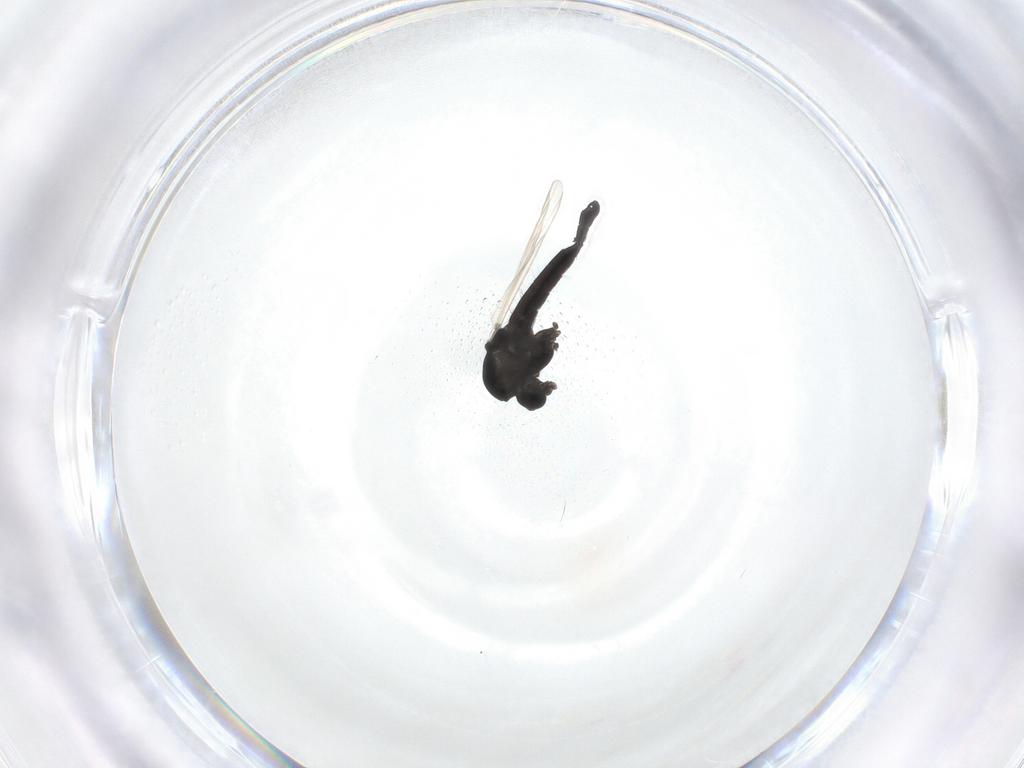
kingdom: Animalia
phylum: Arthropoda
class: Insecta
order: Diptera
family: Chironomidae
